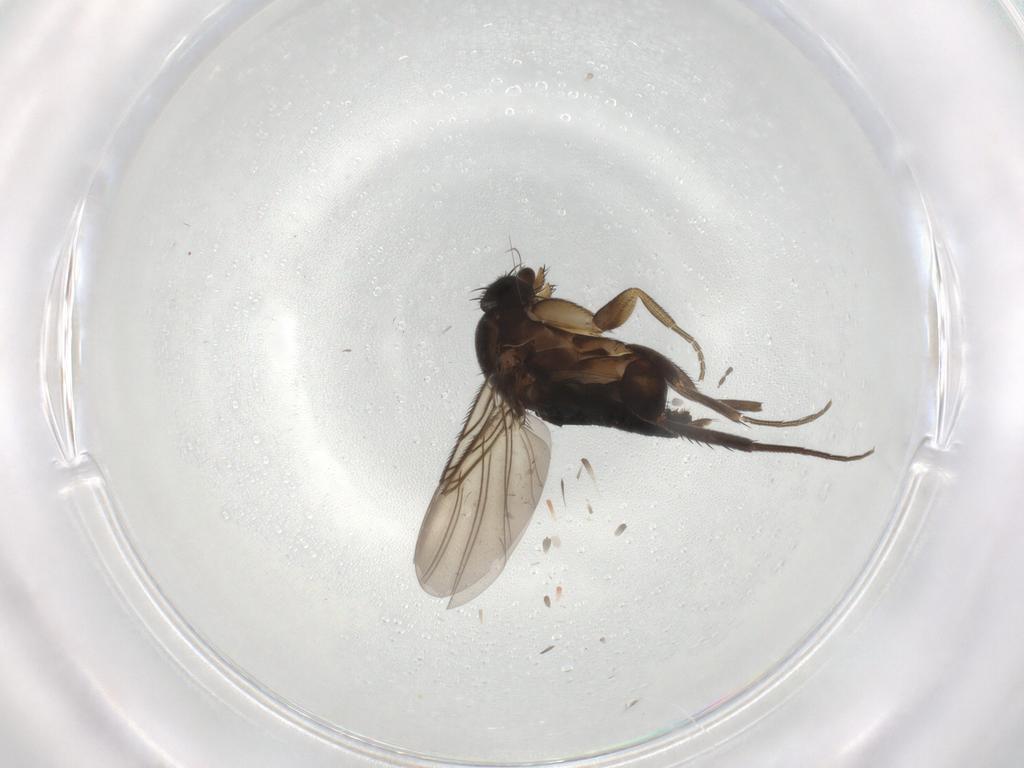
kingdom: Animalia
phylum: Arthropoda
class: Insecta
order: Diptera
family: Phoridae
